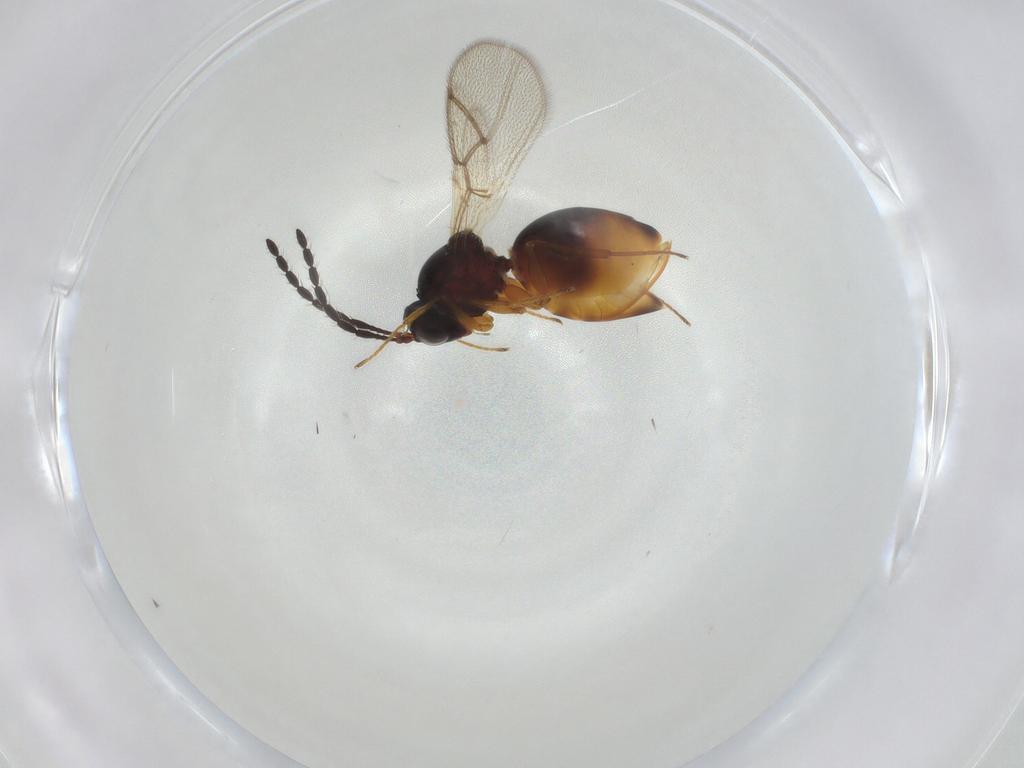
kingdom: Animalia
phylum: Arthropoda
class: Insecta
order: Hymenoptera
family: Figitidae
